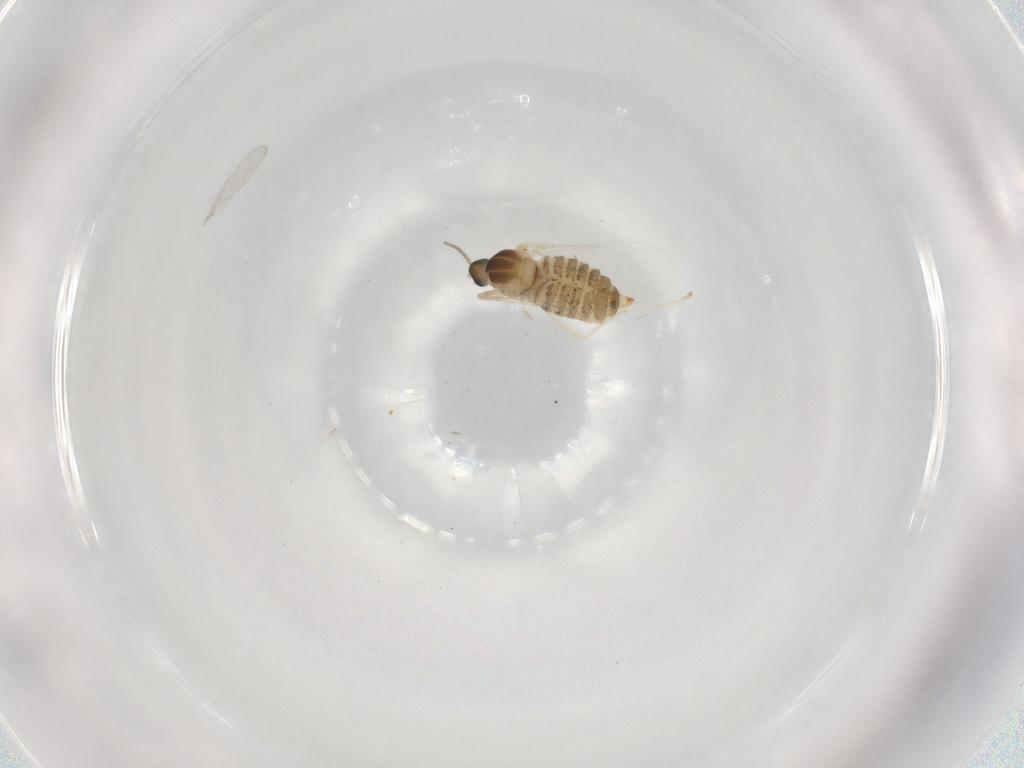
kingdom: Animalia
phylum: Arthropoda
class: Insecta
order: Diptera
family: Cecidomyiidae
